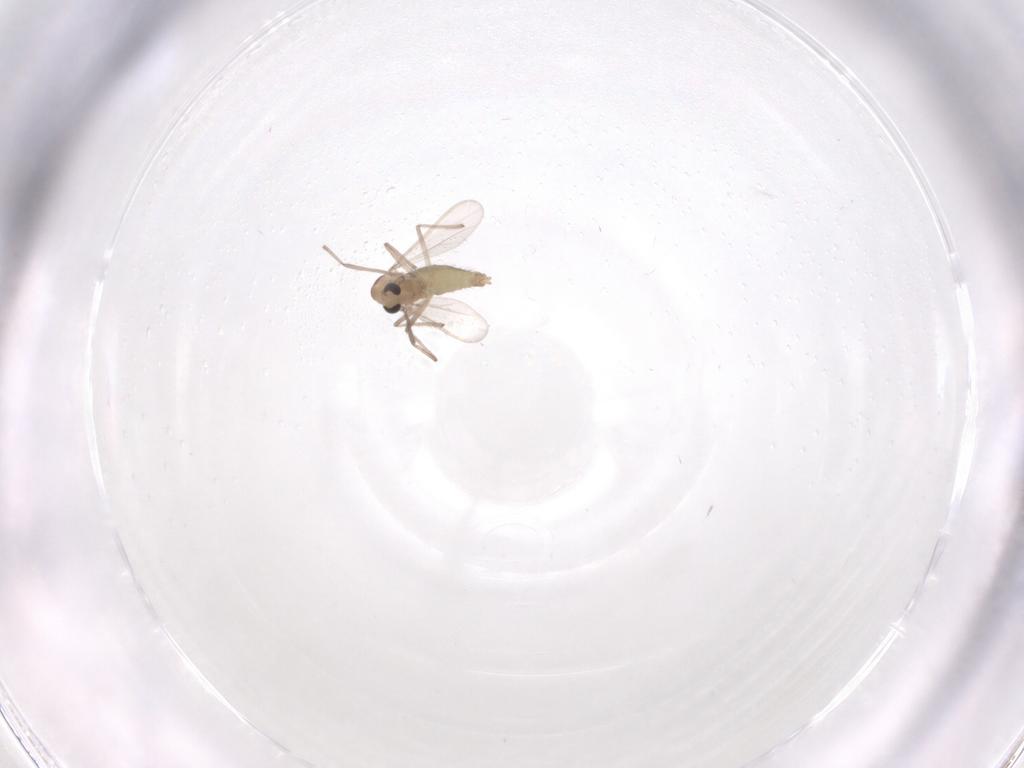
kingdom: Animalia
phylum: Arthropoda
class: Insecta
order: Diptera
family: Chironomidae
